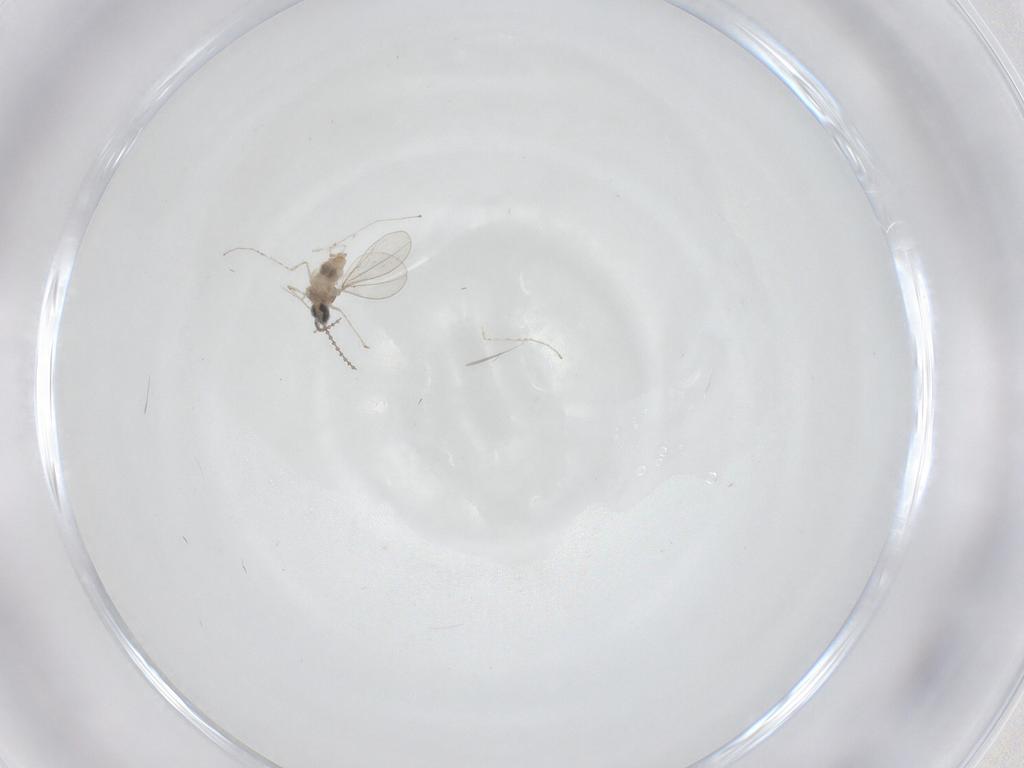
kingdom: Animalia
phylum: Arthropoda
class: Insecta
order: Diptera
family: Cecidomyiidae
